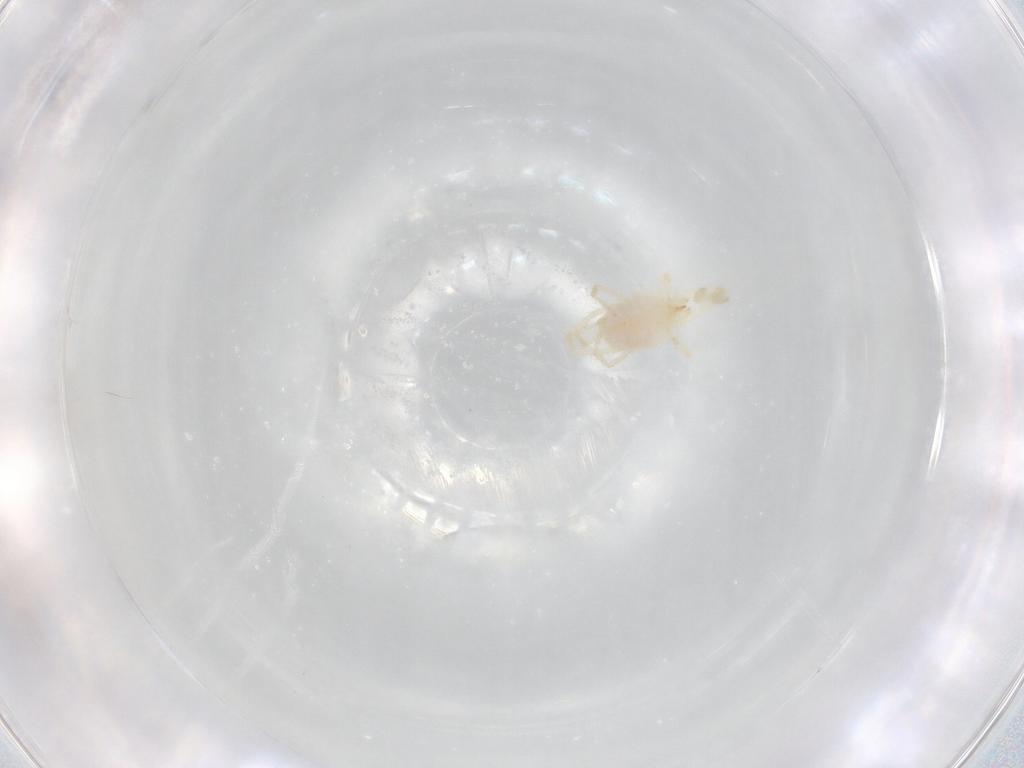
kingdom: Animalia
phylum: Arthropoda
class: Arachnida
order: Trombidiformes
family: Erythraeidae
